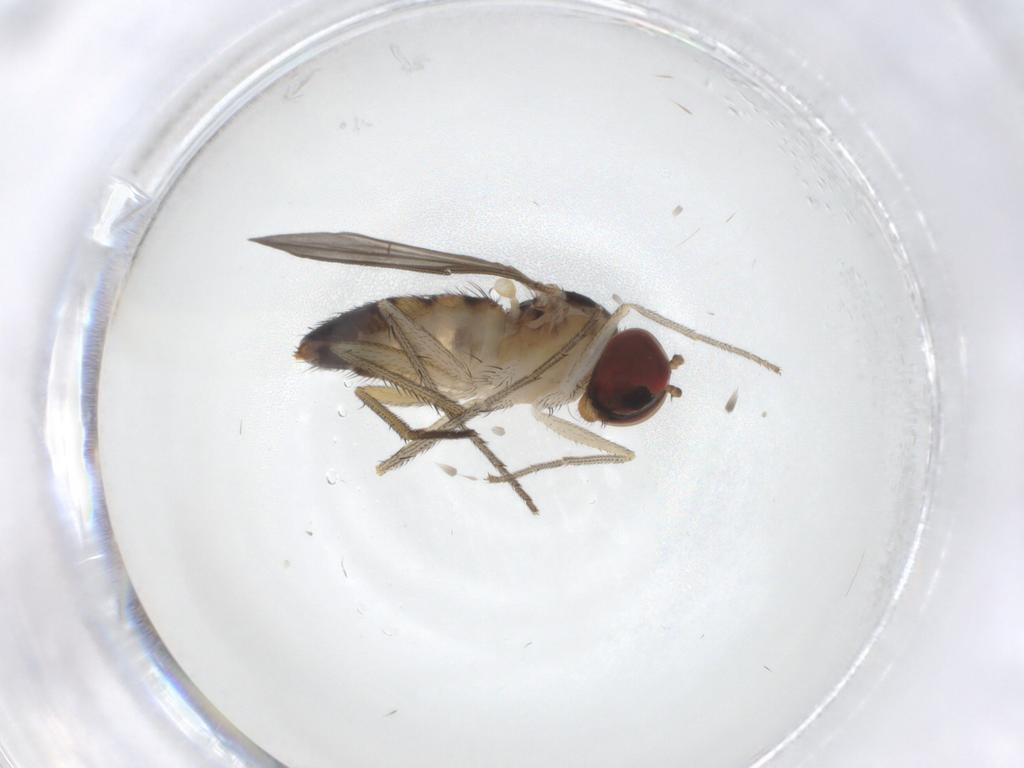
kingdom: Animalia
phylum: Arthropoda
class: Insecta
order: Diptera
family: Dolichopodidae
